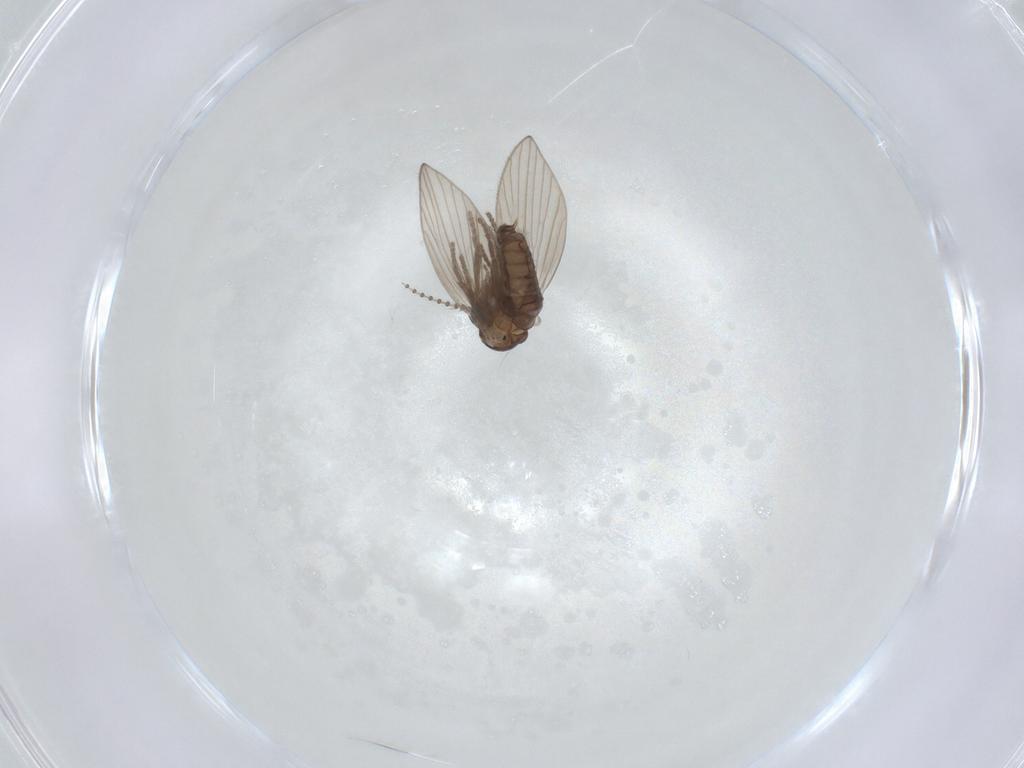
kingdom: Animalia
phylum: Arthropoda
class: Insecta
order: Diptera
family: Chironomidae
